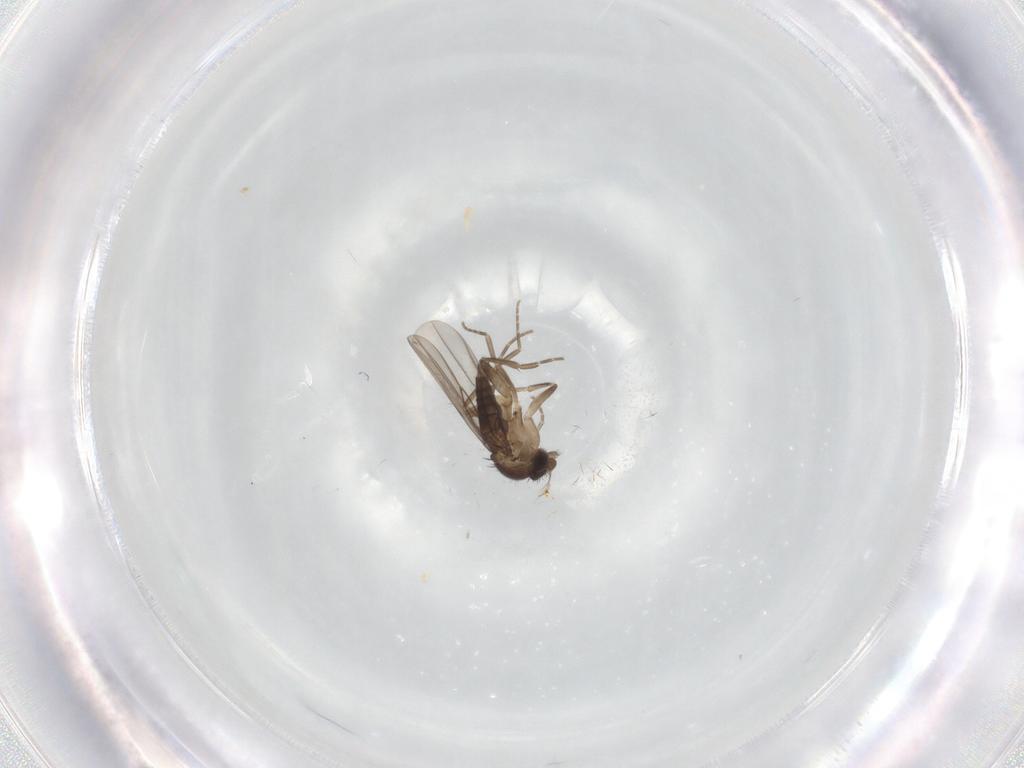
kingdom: Animalia
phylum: Arthropoda
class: Insecta
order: Diptera
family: Phoridae
